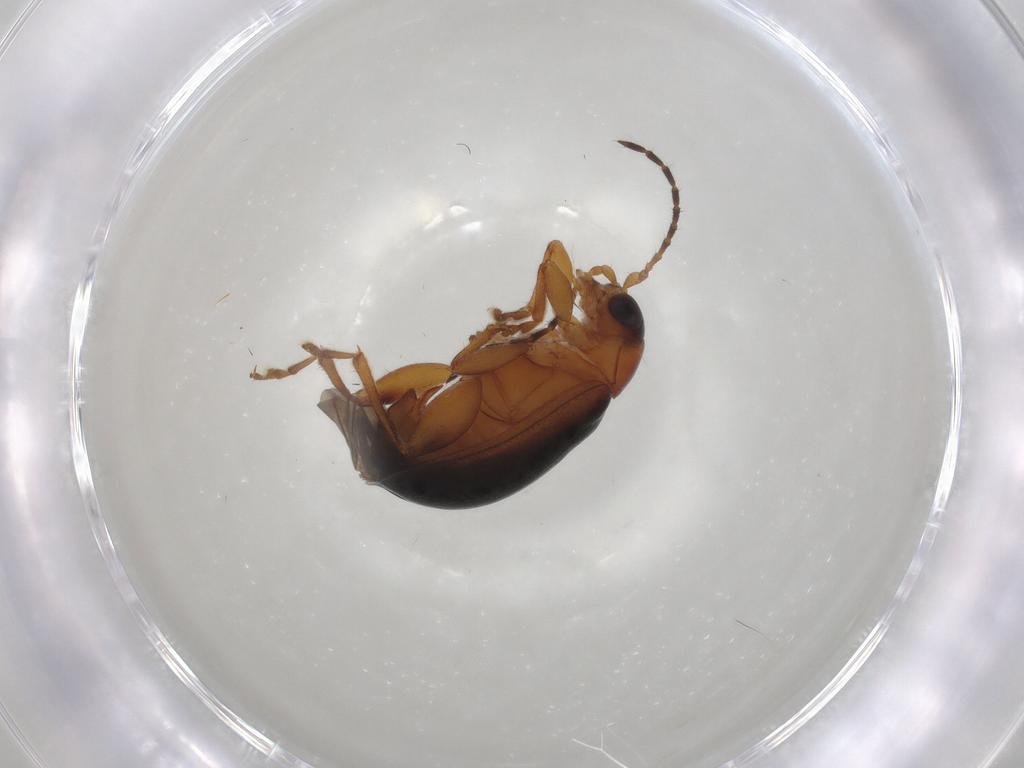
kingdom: Animalia
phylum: Arthropoda
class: Insecta
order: Coleoptera
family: Chrysomelidae
